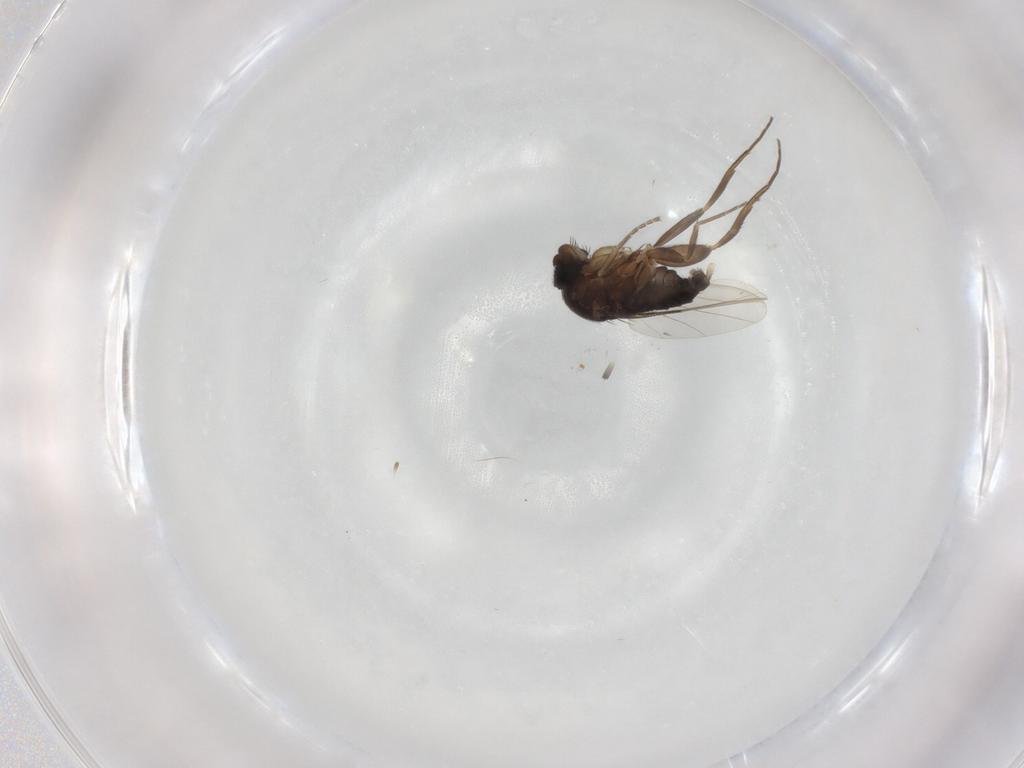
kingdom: Animalia
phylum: Arthropoda
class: Insecta
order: Diptera
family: Phoridae
